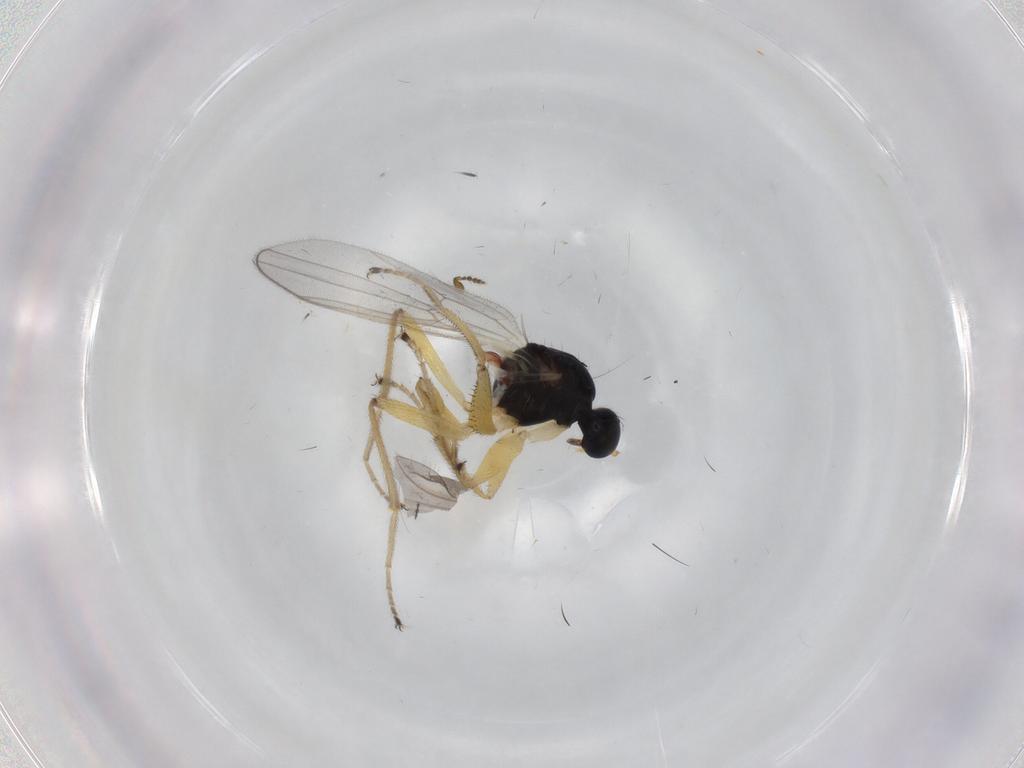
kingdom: Animalia
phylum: Arthropoda
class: Insecta
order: Diptera
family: Hybotidae
